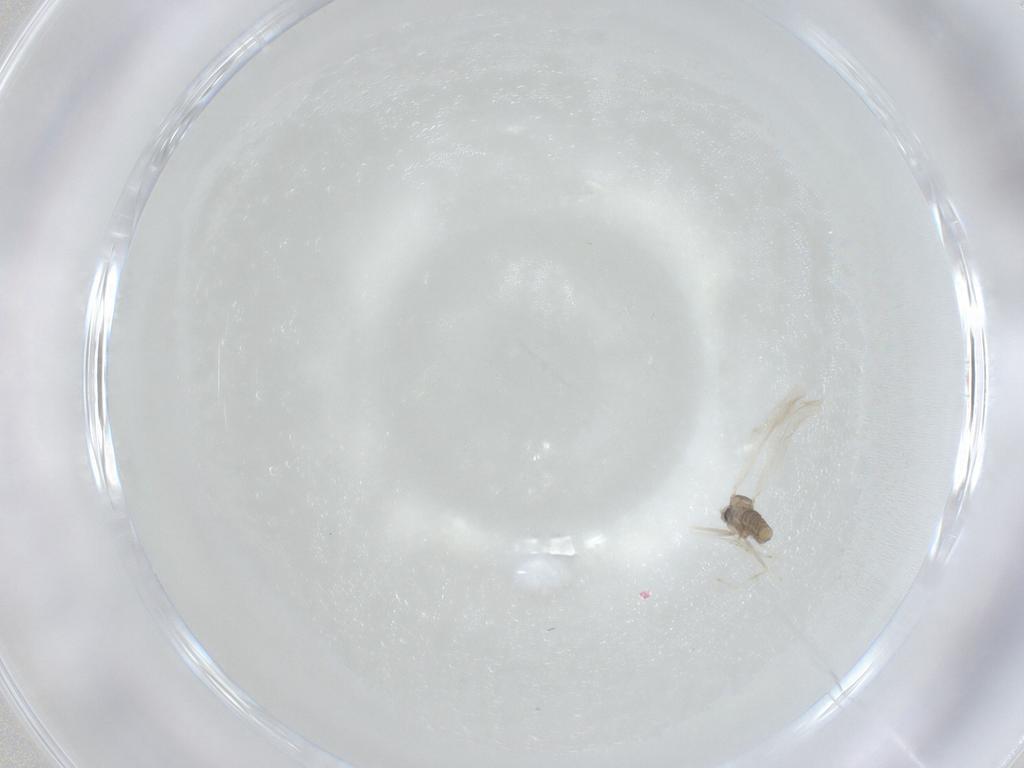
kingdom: Animalia
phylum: Arthropoda
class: Insecta
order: Diptera
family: Cecidomyiidae
